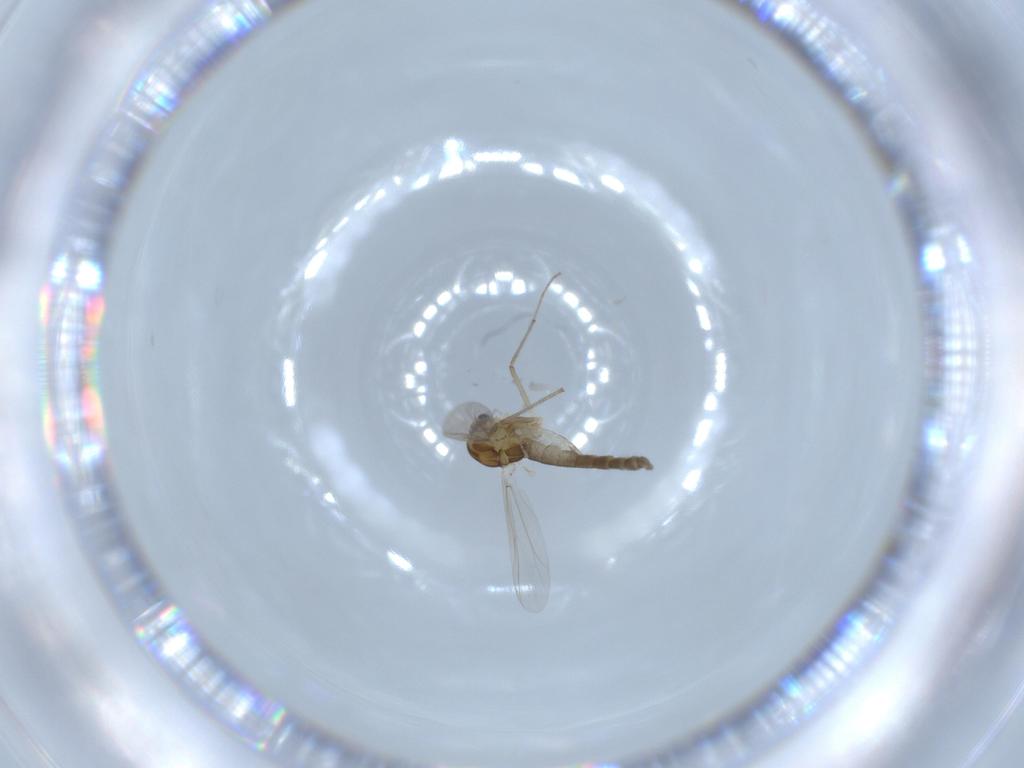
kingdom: Animalia
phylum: Arthropoda
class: Insecta
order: Diptera
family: Chironomidae
